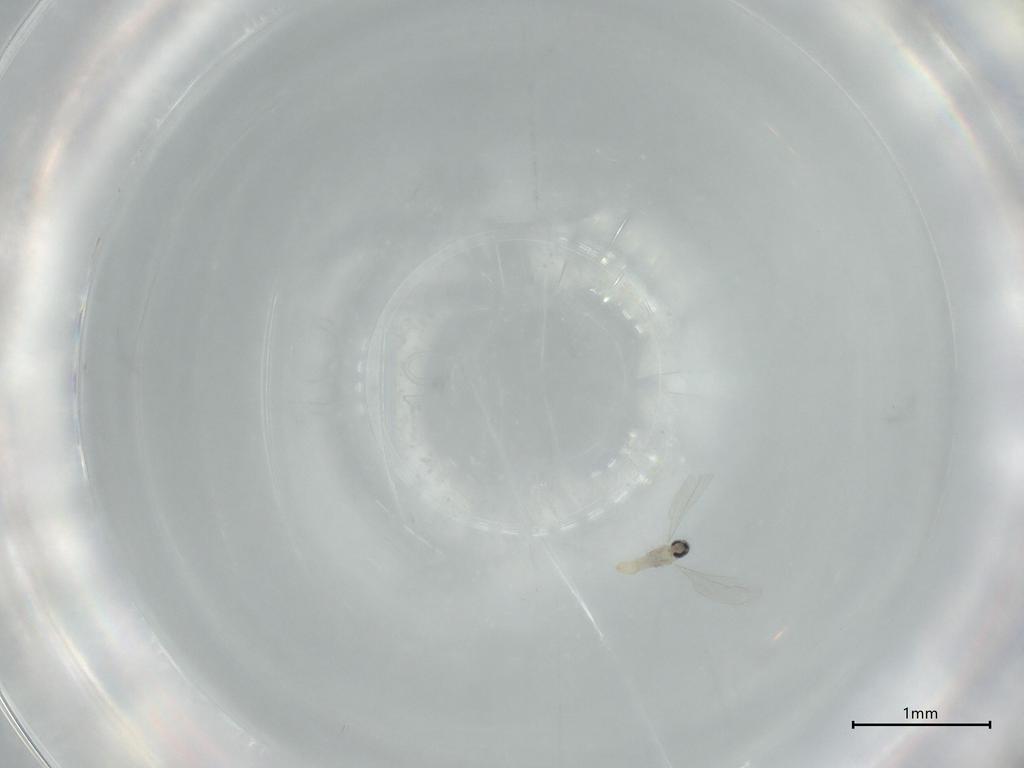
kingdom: Animalia
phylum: Arthropoda
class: Insecta
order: Diptera
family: Cecidomyiidae
